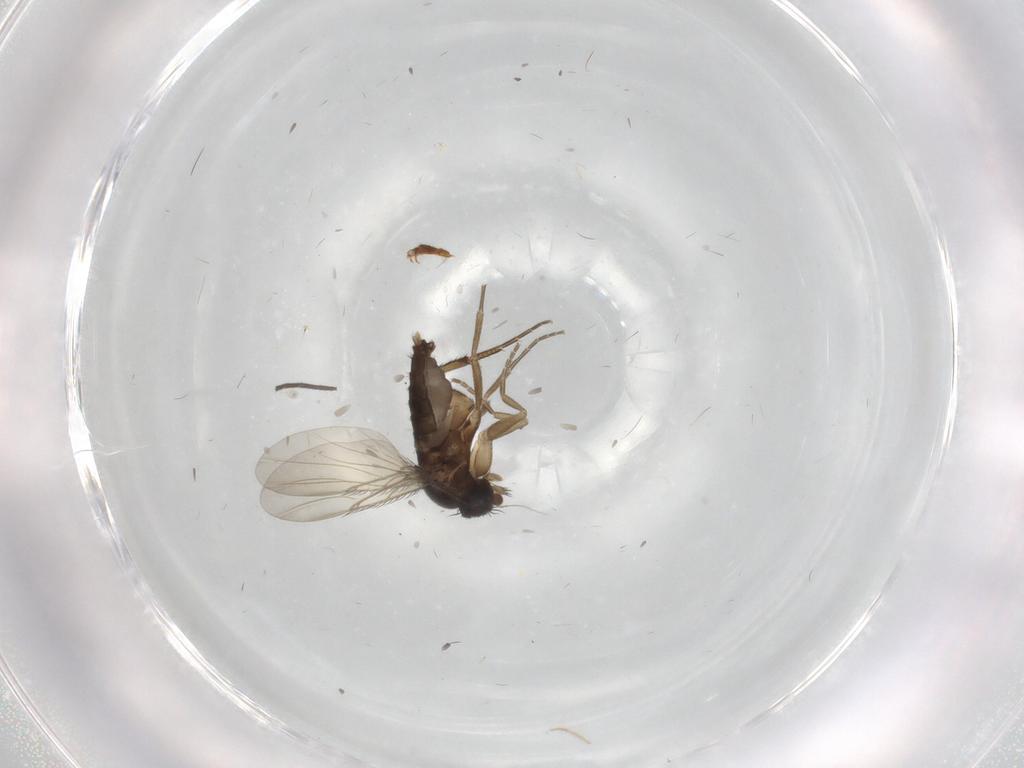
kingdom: Animalia
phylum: Arthropoda
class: Insecta
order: Diptera
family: Phoridae
